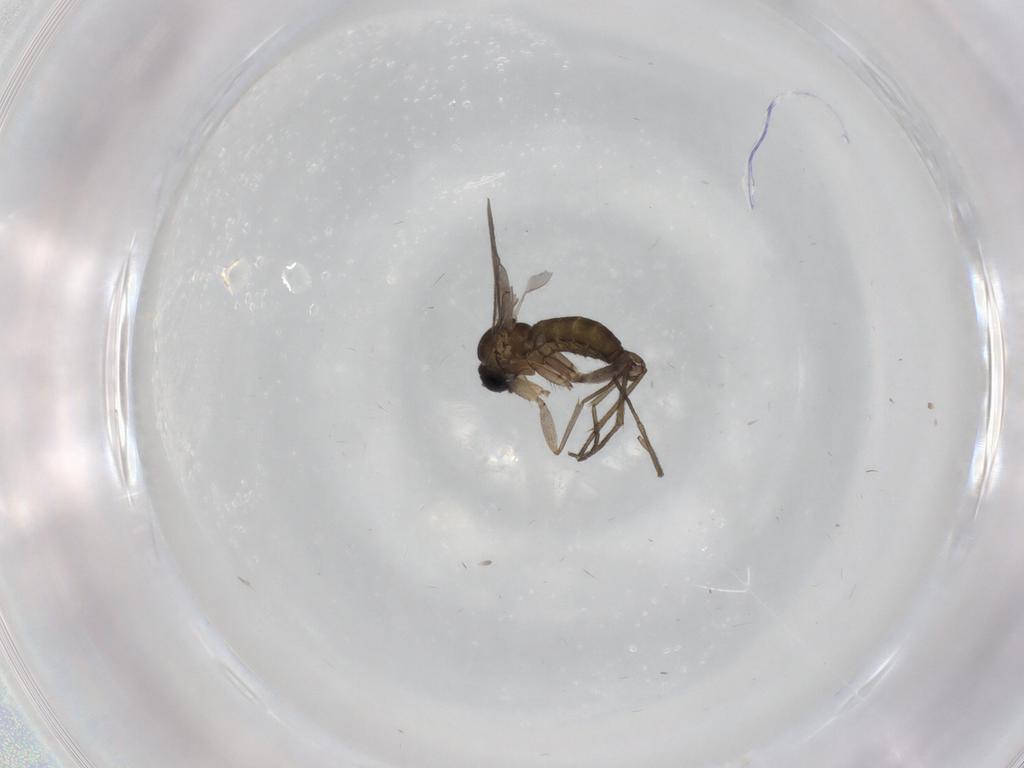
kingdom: Animalia
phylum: Arthropoda
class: Insecta
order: Diptera
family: Sciaridae
